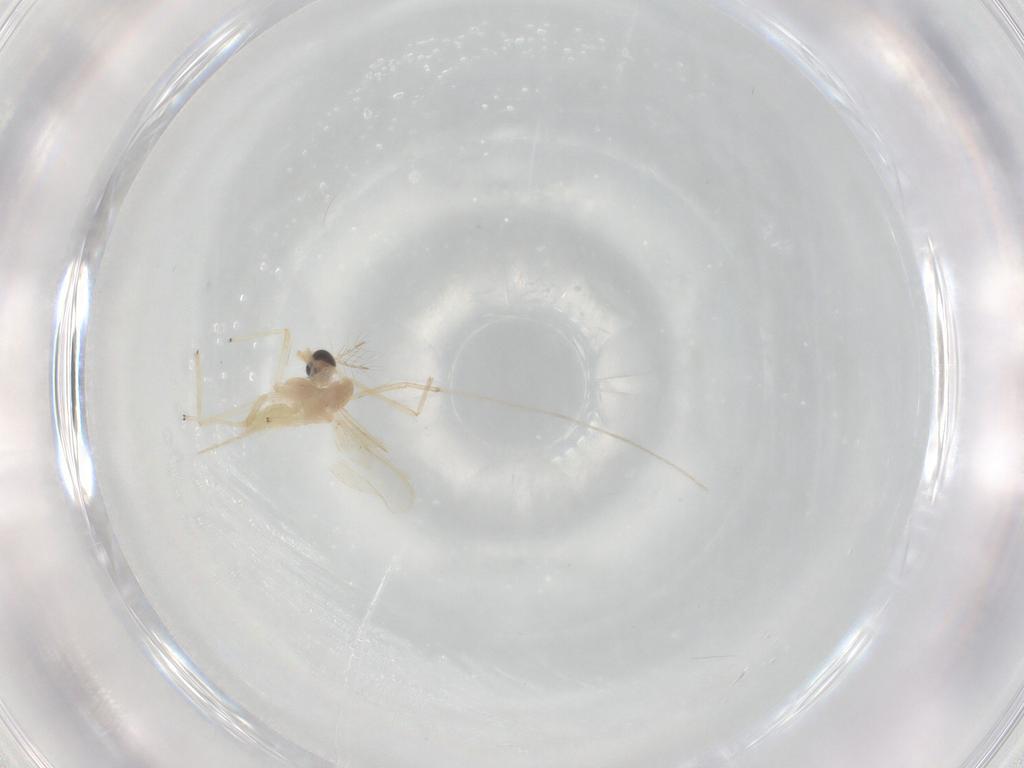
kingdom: Animalia
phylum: Arthropoda
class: Insecta
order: Diptera
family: Chironomidae
